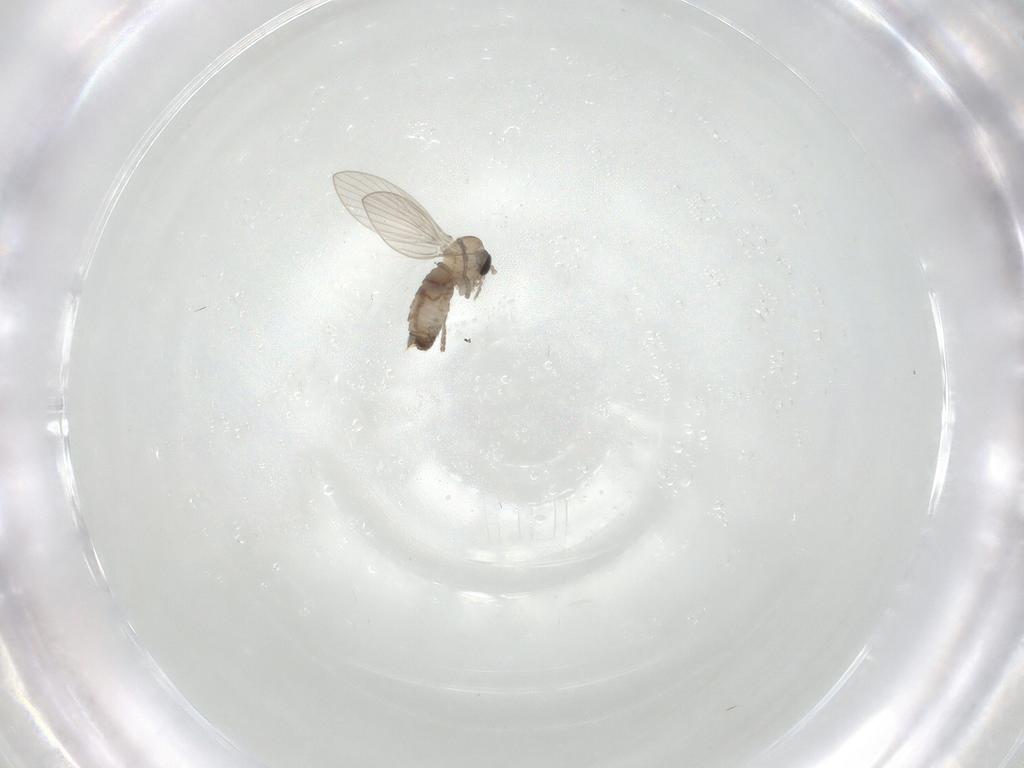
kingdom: Animalia
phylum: Arthropoda
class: Insecta
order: Diptera
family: Psychodidae
